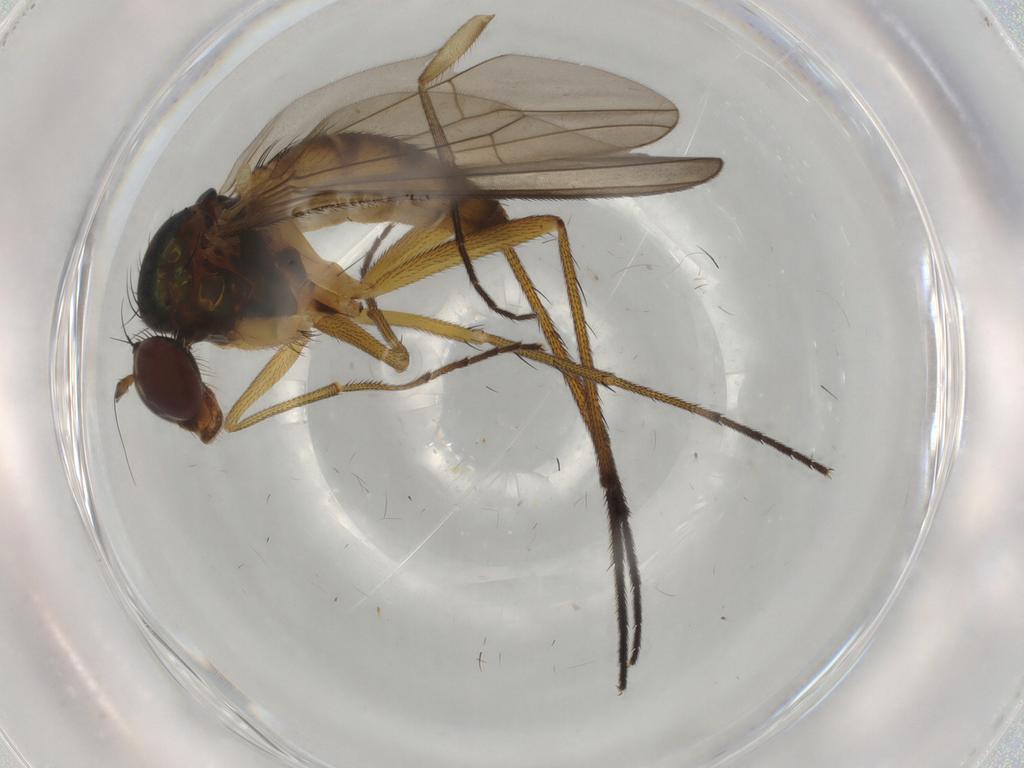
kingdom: Animalia
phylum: Arthropoda
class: Insecta
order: Diptera
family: Dolichopodidae
